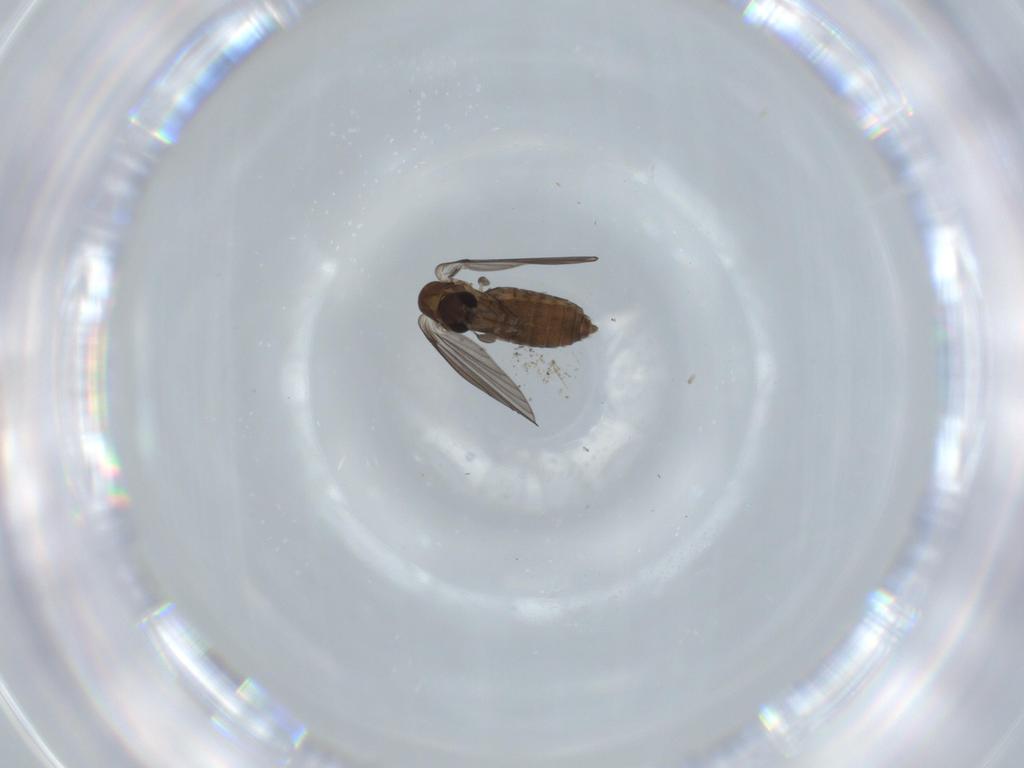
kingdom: Animalia
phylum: Arthropoda
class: Insecta
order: Diptera
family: Psychodidae
